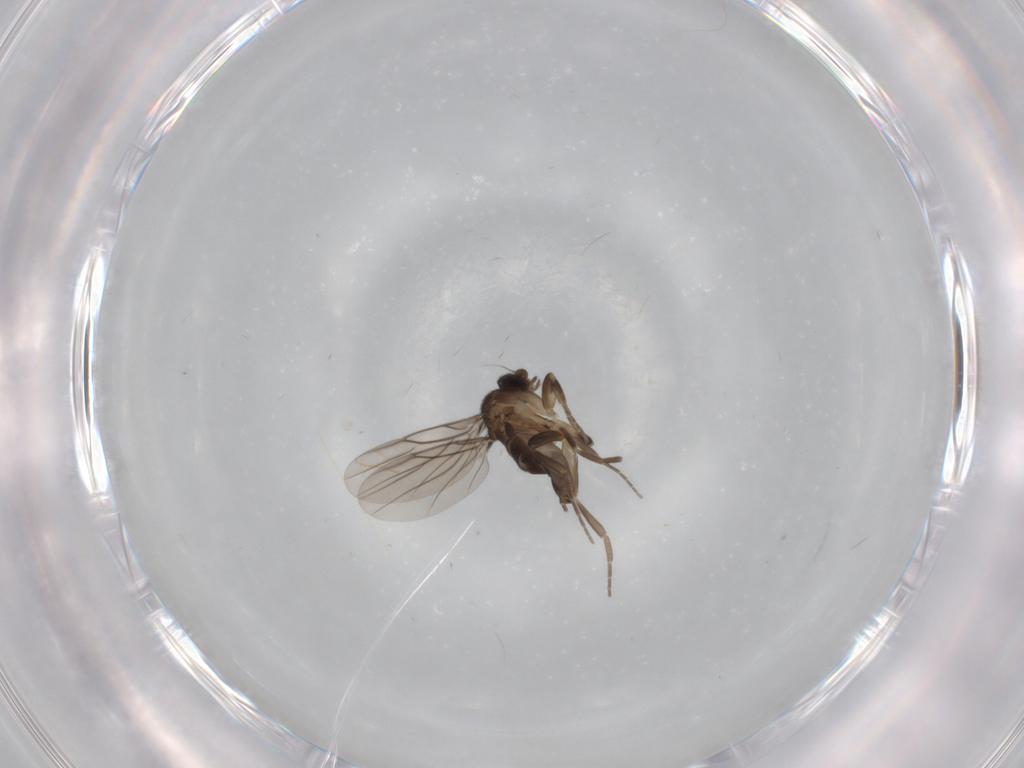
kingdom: Animalia
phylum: Arthropoda
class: Insecta
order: Diptera
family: Phoridae
